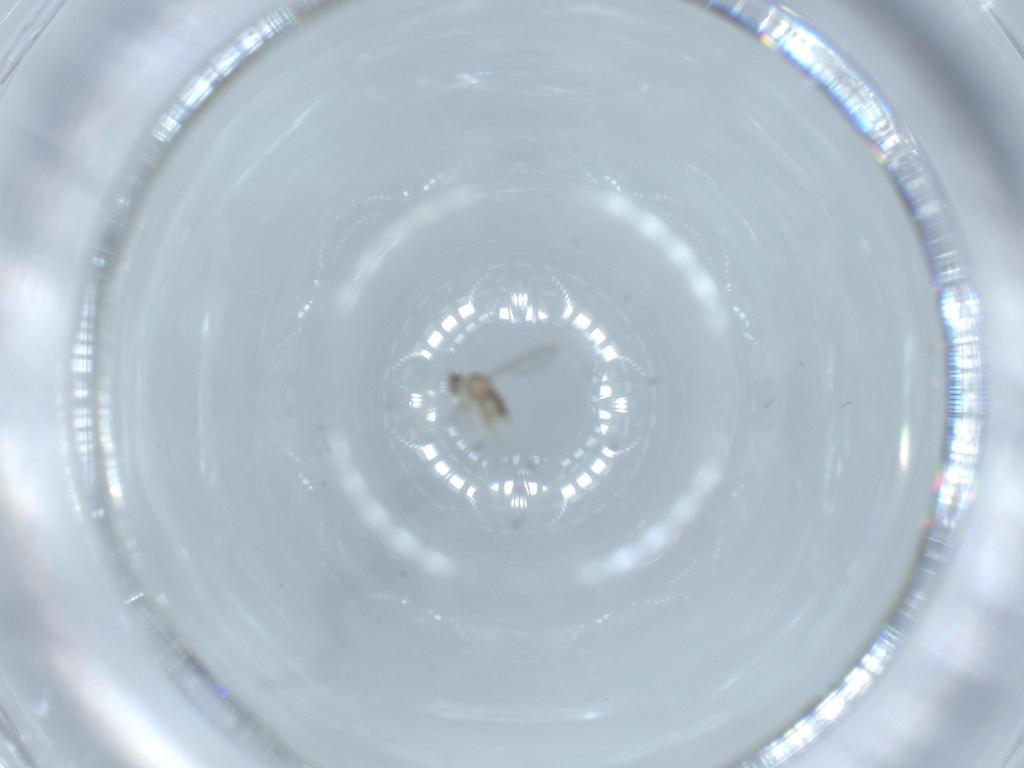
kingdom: Animalia
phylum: Arthropoda
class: Insecta
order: Diptera
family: Cecidomyiidae
